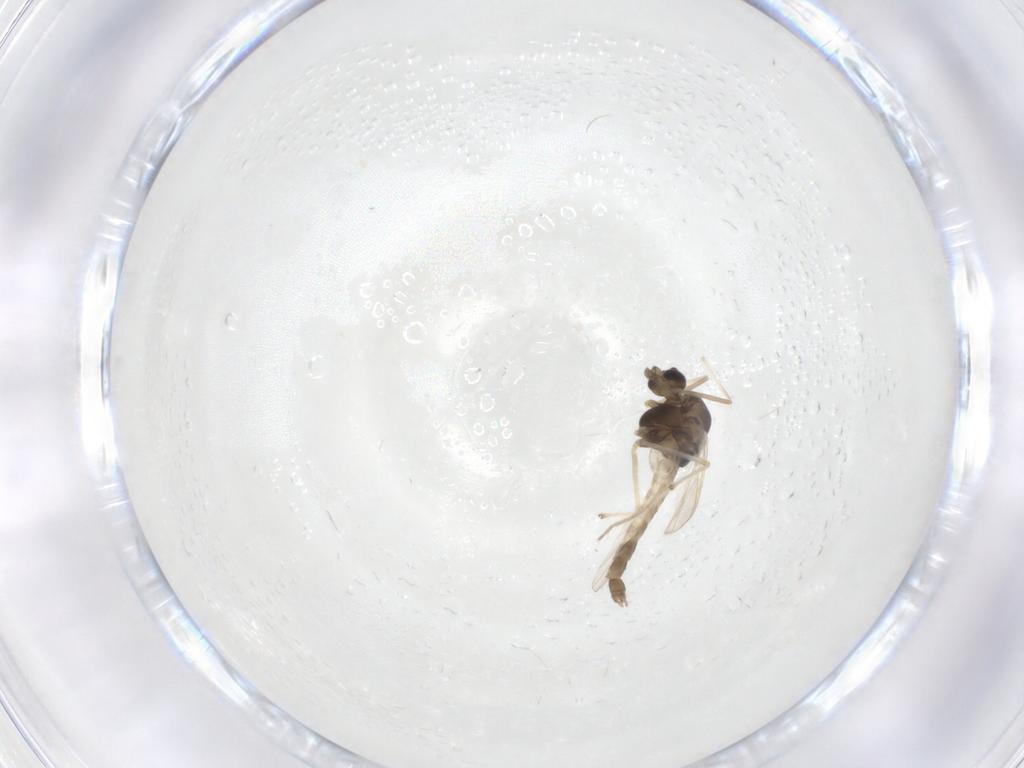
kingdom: Animalia
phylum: Arthropoda
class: Insecta
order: Diptera
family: Chironomidae
